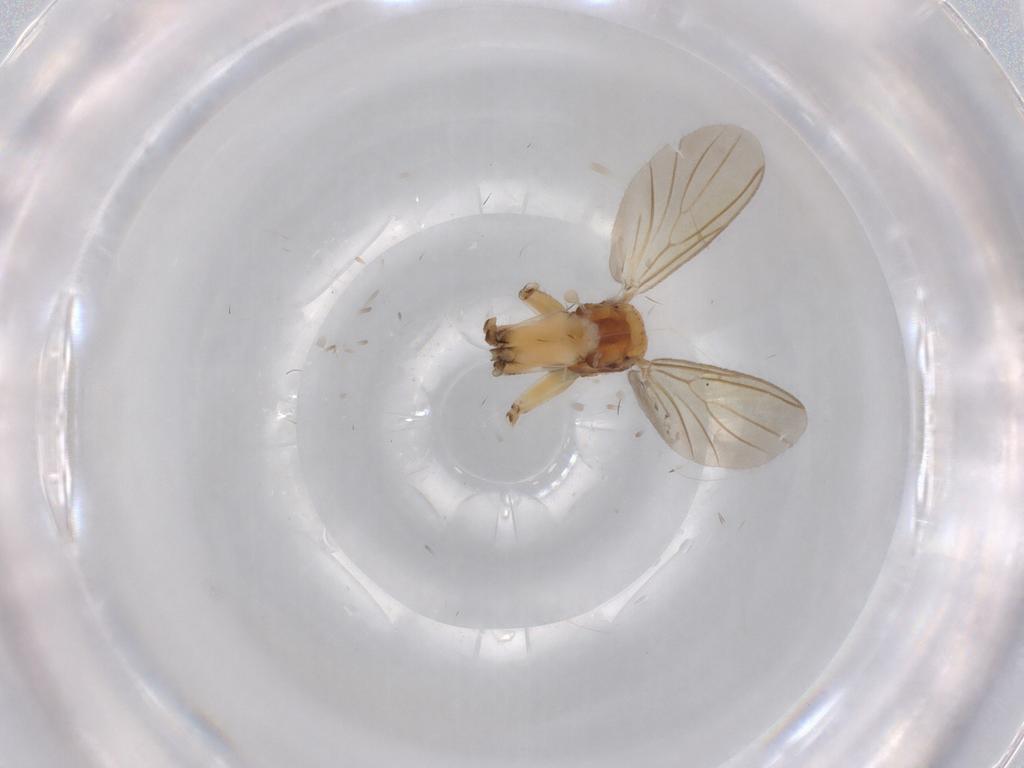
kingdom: Animalia
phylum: Arthropoda
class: Insecta
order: Diptera
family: Mycetophilidae
